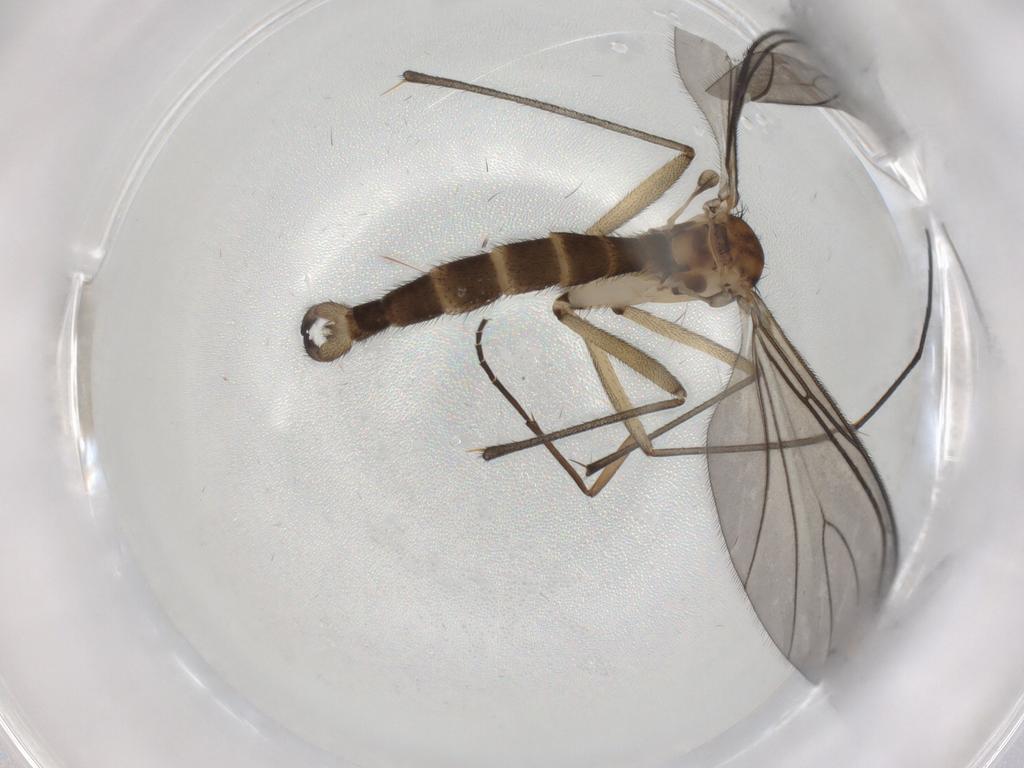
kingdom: Animalia
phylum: Arthropoda
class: Insecta
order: Diptera
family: Sciaridae
